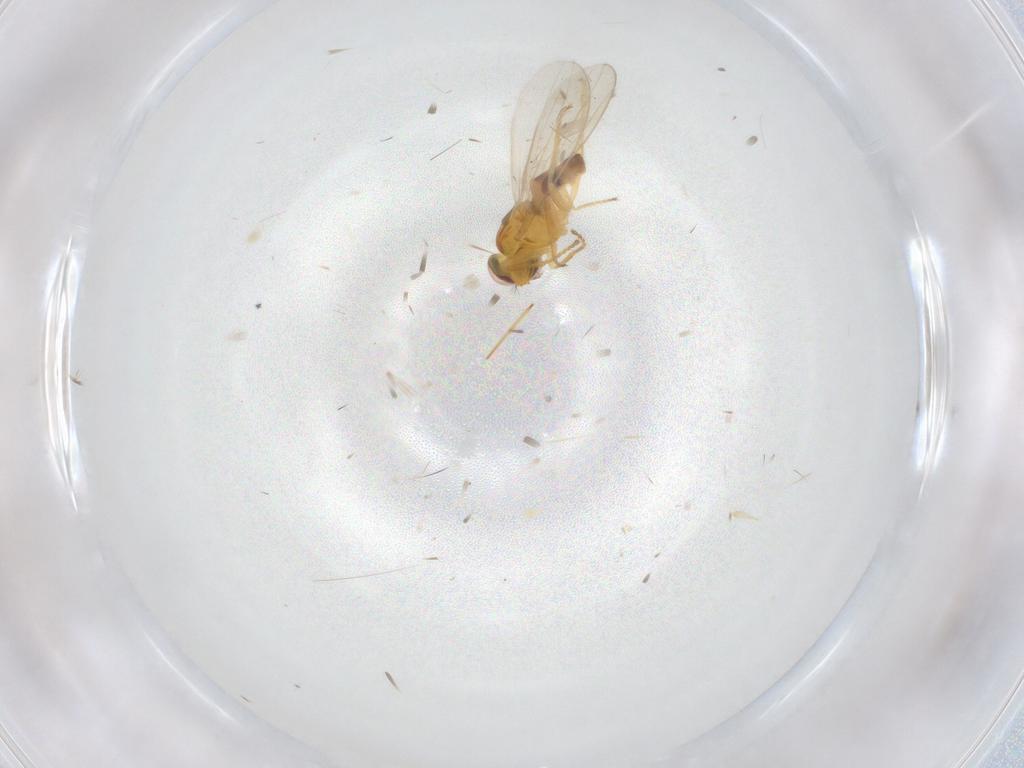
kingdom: Animalia
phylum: Arthropoda
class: Insecta
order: Diptera
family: Periscelididae
